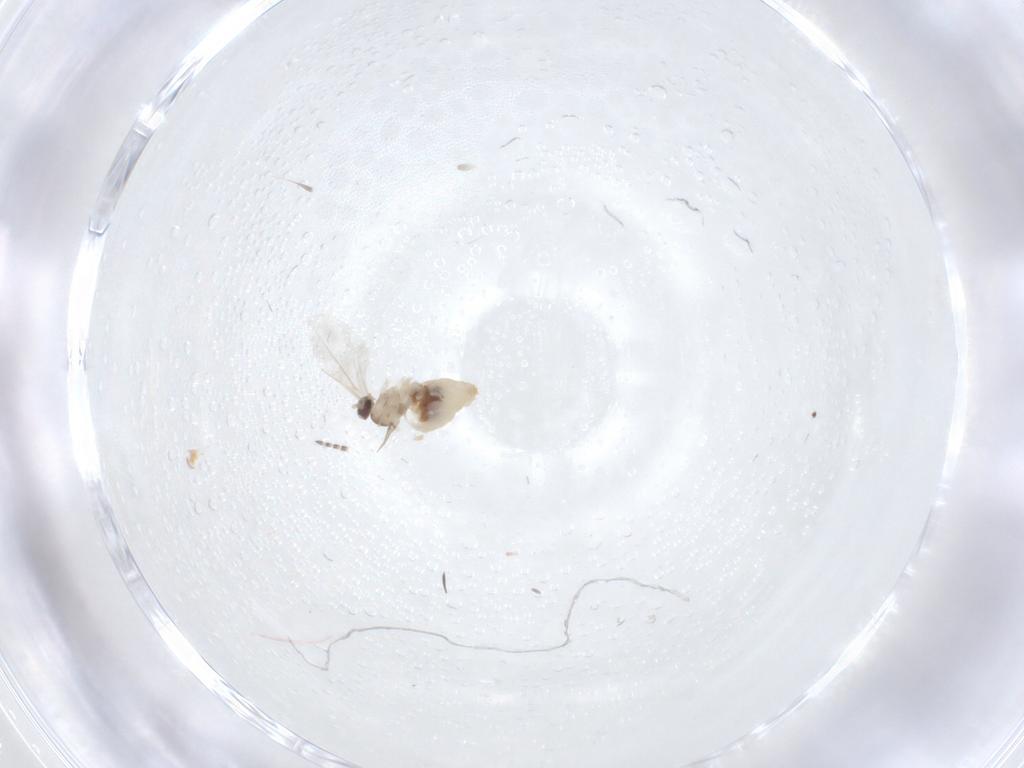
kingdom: Animalia
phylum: Arthropoda
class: Insecta
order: Diptera
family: Cecidomyiidae
